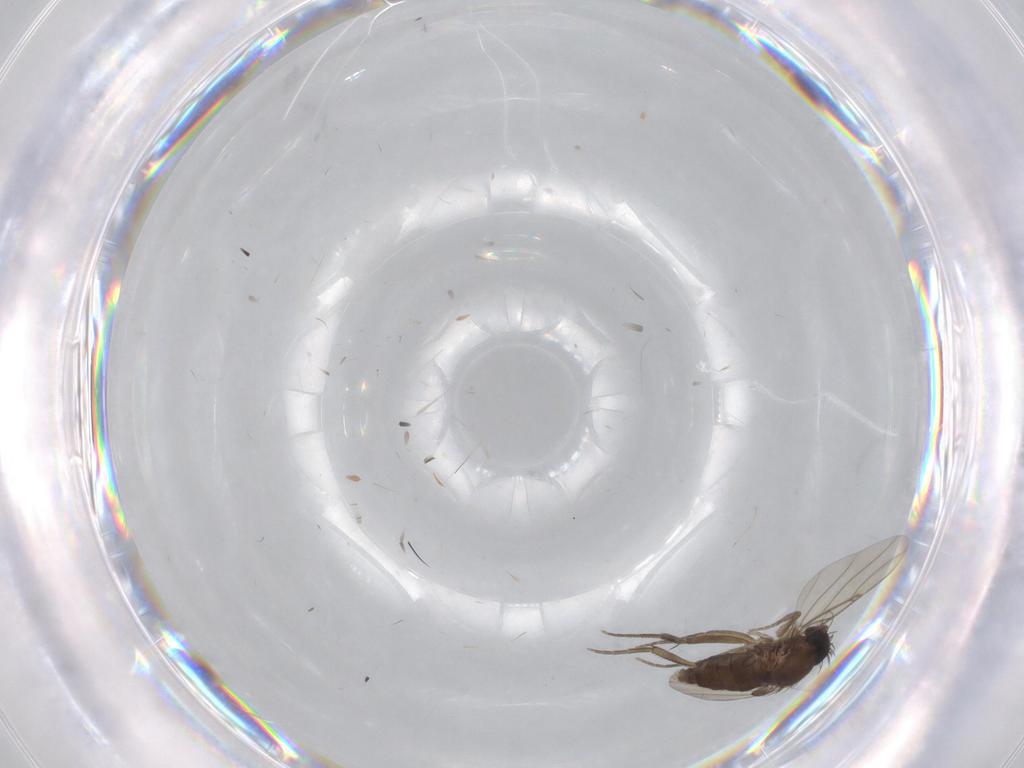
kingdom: Animalia
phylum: Arthropoda
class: Insecta
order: Diptera
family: Phoridae
